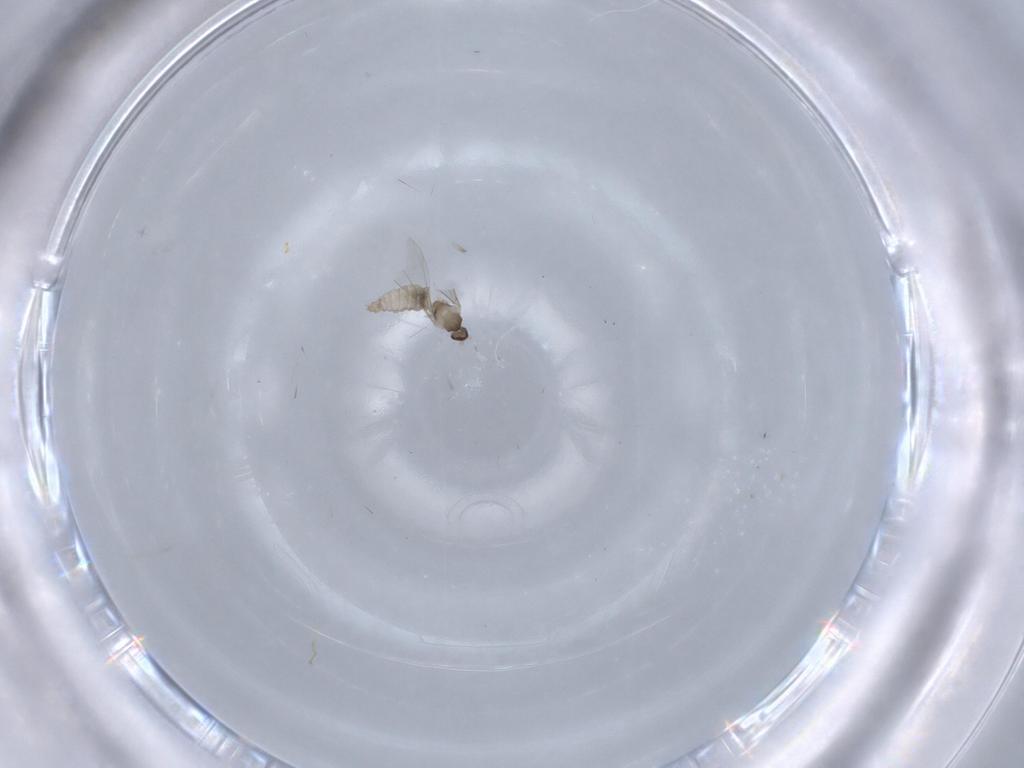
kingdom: Animalia
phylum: Arthropoda
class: Insecta
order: Diptera
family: Cecidomyiidae
